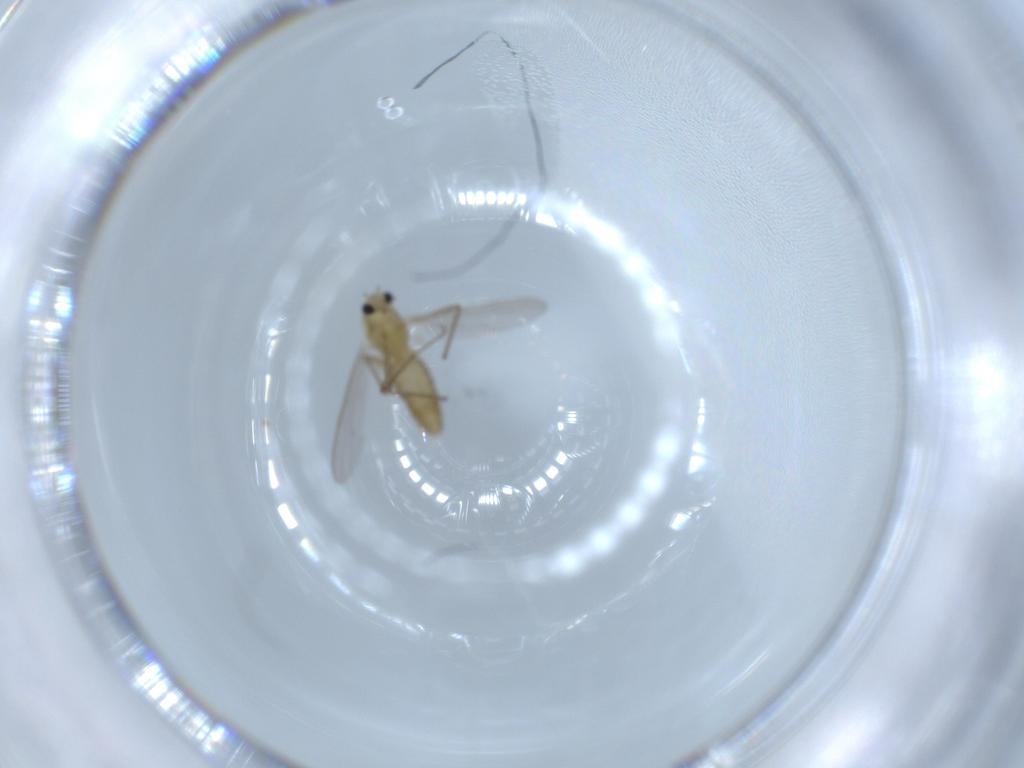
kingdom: Animalia
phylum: Arthropoda
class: Insecta
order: Diptera
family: Chironomidae
